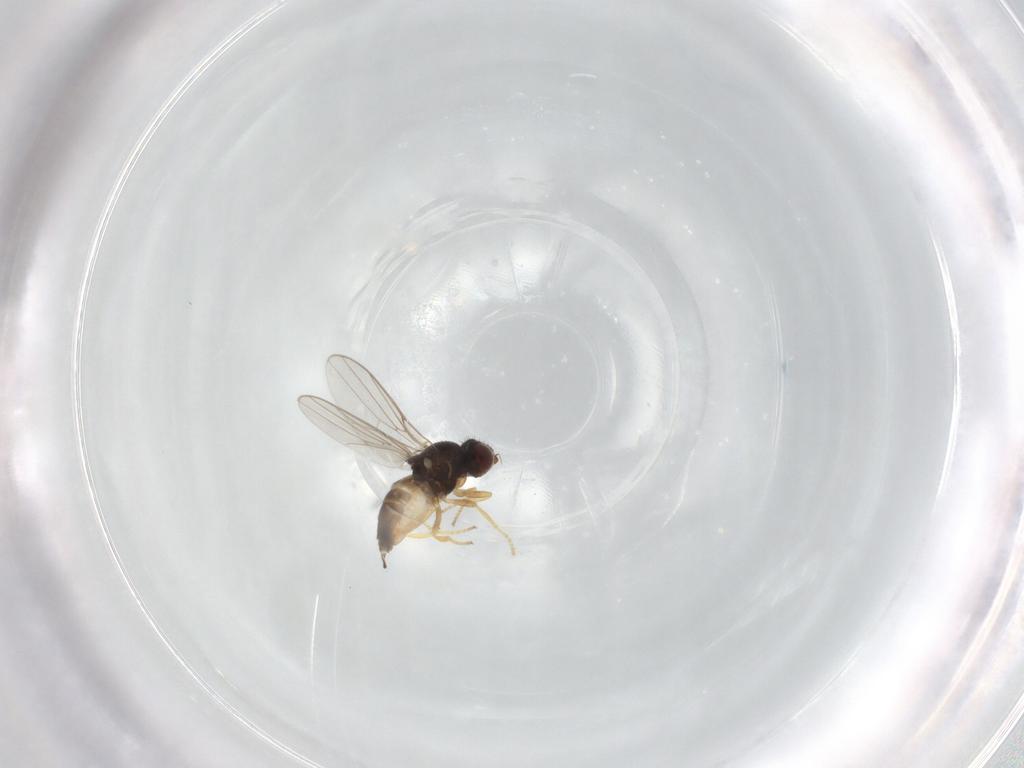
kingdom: Animalia
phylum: Arthropoda
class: Insecta
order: Diptera
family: Chloropidae
